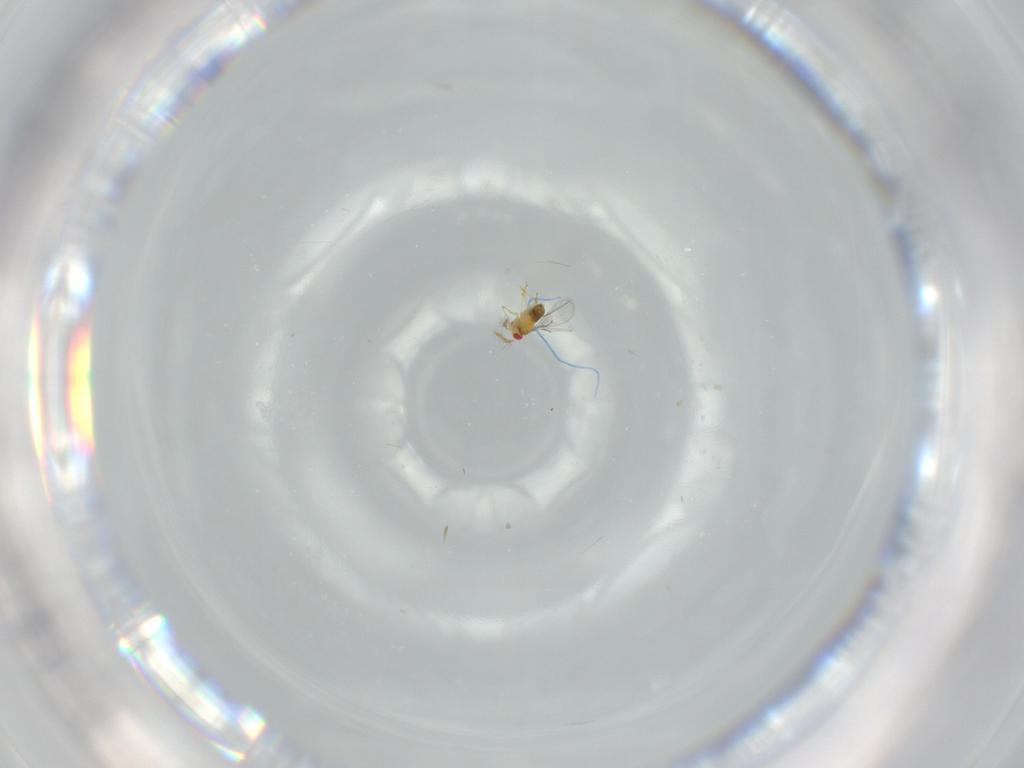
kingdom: Animalia
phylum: Arthropoda
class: Insecta
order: Hymenoptera
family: Trichogrammatidae
